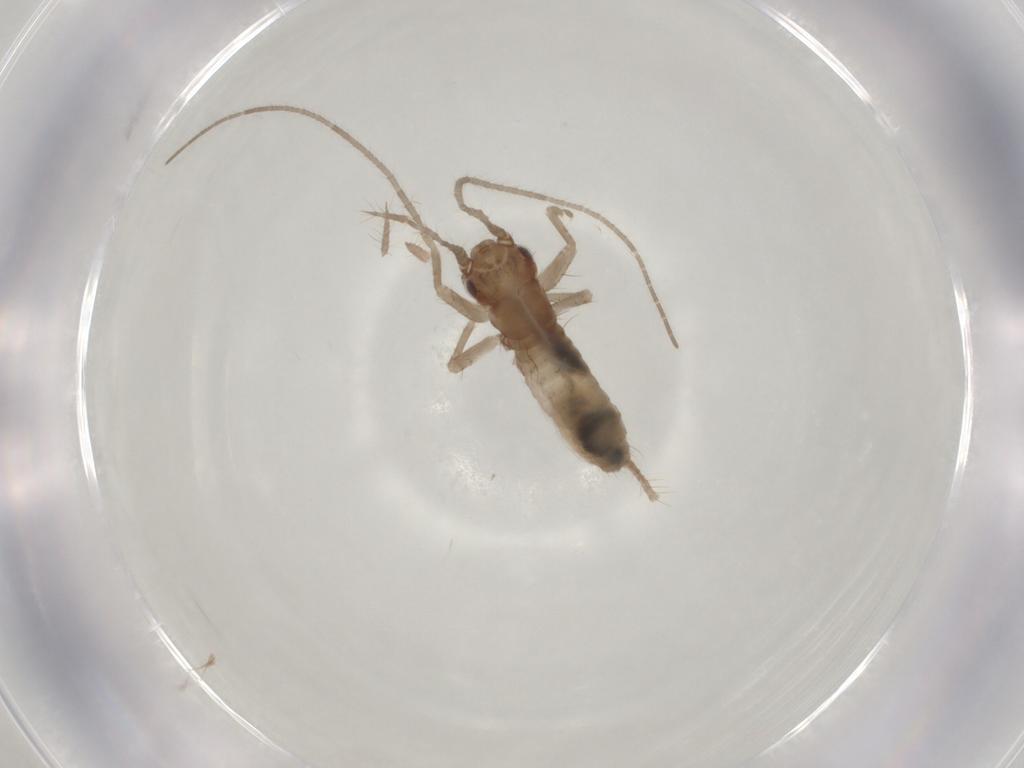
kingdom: Animalia
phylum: Arthropoda
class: Insecta
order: Orthoptera
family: Mogoplistidae
